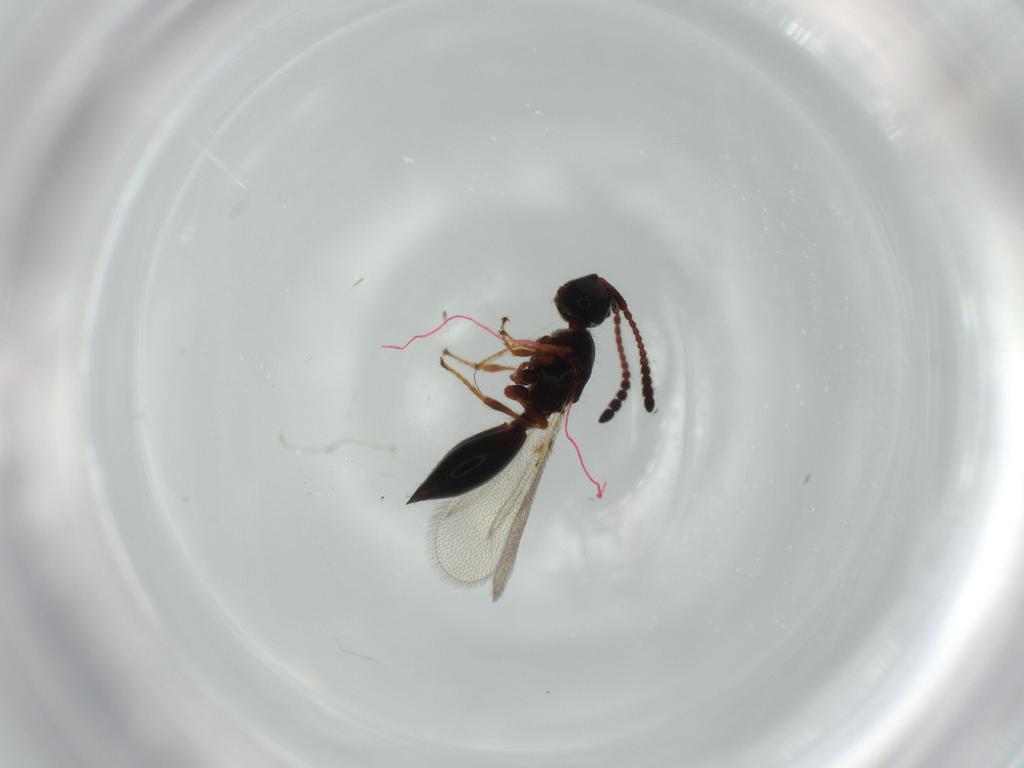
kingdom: Animalia
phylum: Arthropoda
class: Insecta
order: Hymenoptera
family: Diapriidae
